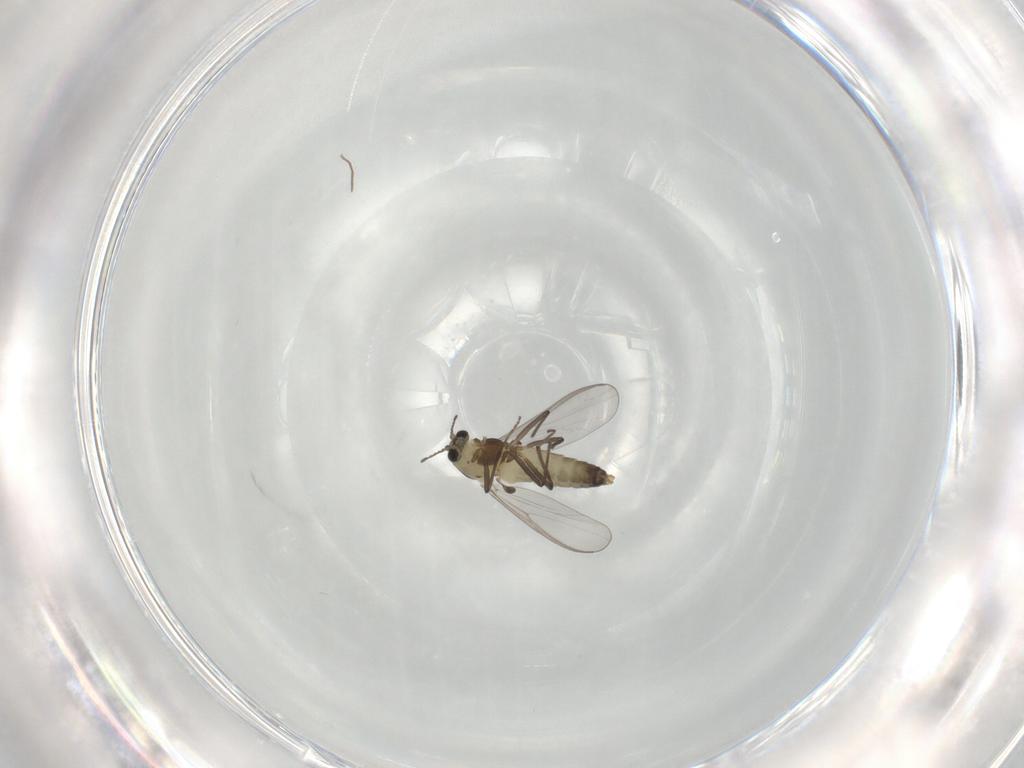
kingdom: Animalia
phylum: Arthropoda
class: Insecta
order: Diptera
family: Chironomidae
